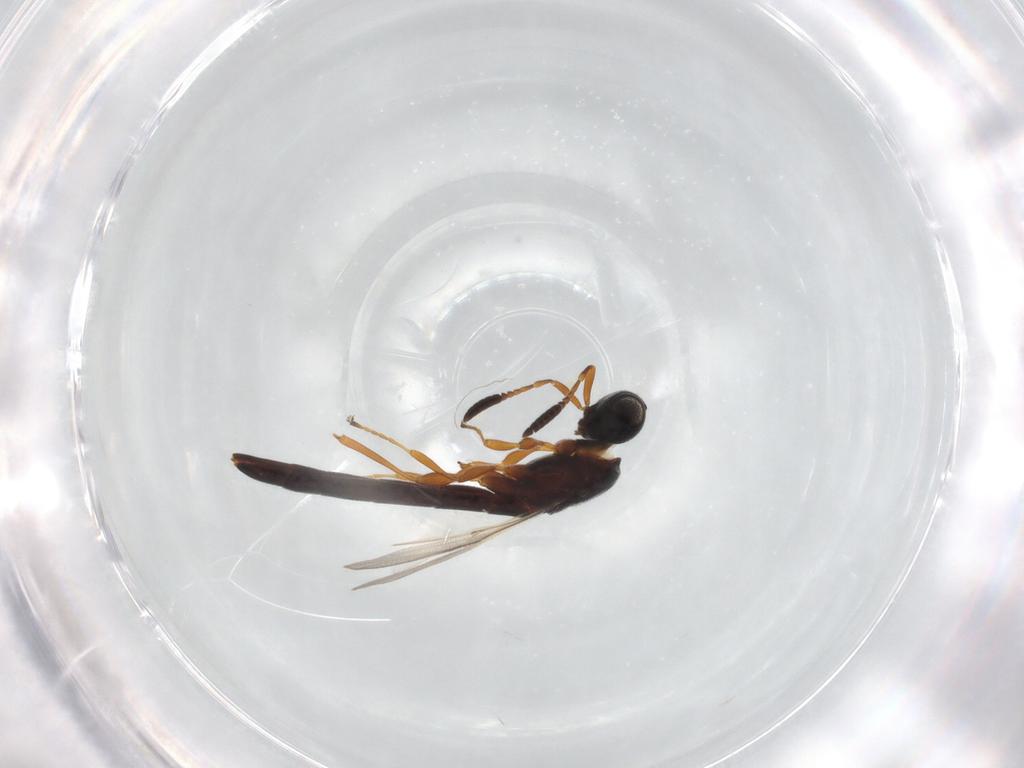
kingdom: Animalia
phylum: Arthropoda
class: Insecta
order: Hymenoptera
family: Scelionidae
